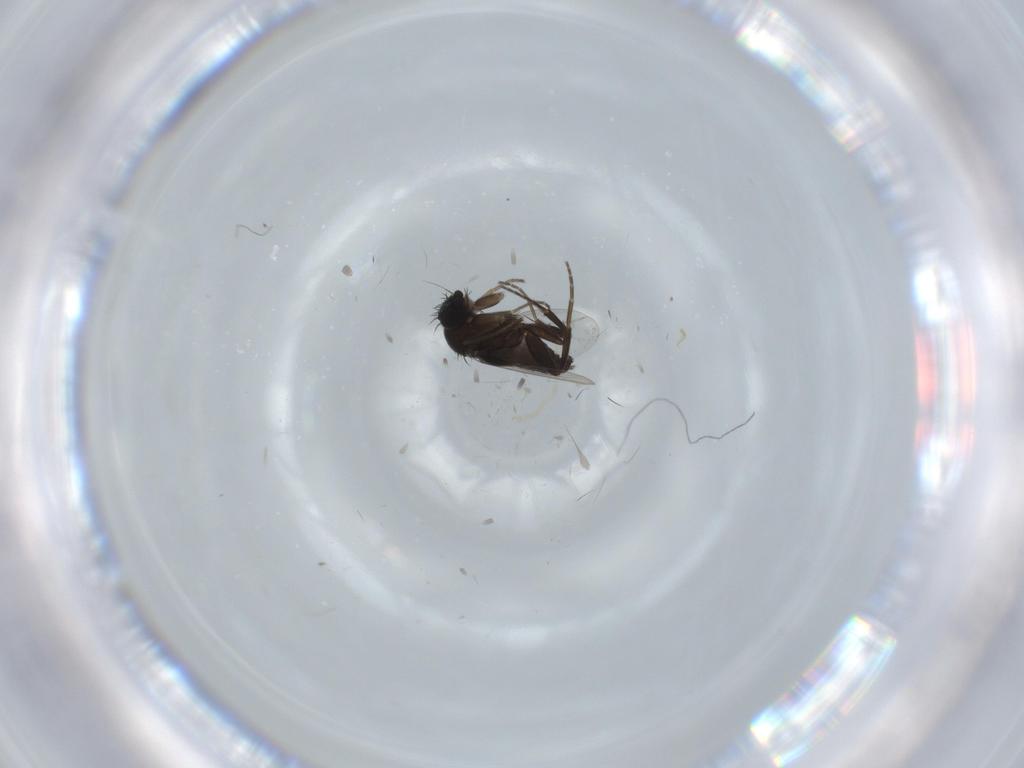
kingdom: Animalia
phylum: Arthropoda
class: Insecta
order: Diptera
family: Phoridae
